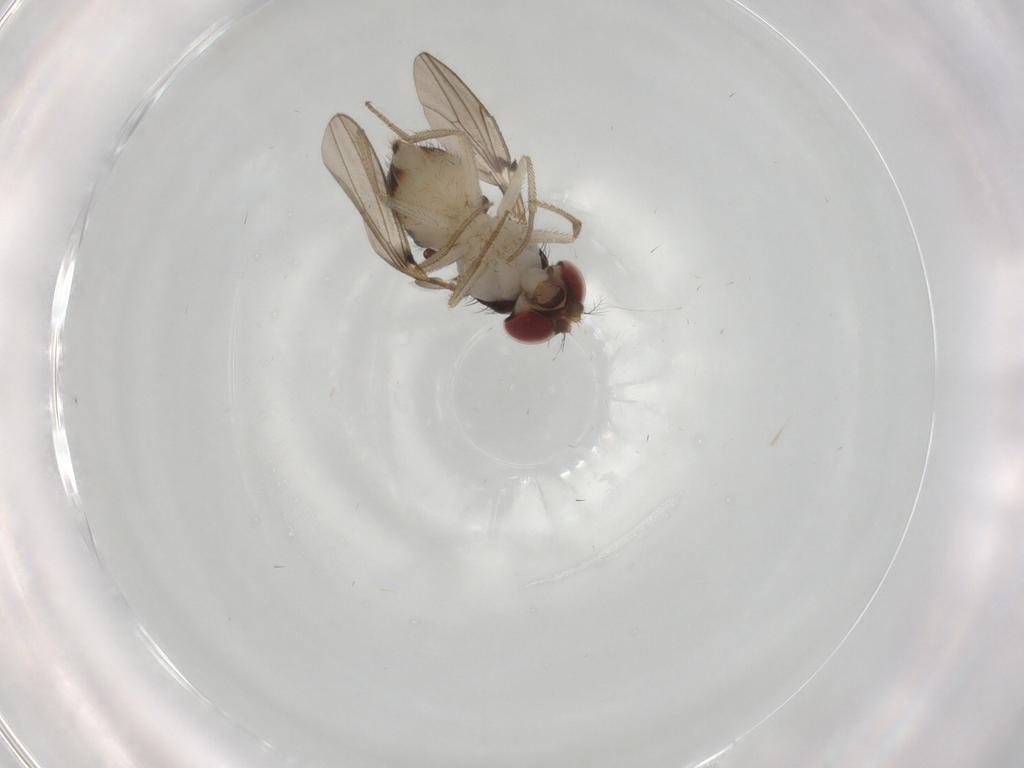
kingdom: Animalia
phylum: Arthropoda
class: Insecta
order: Diptera
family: Drosophilidae
